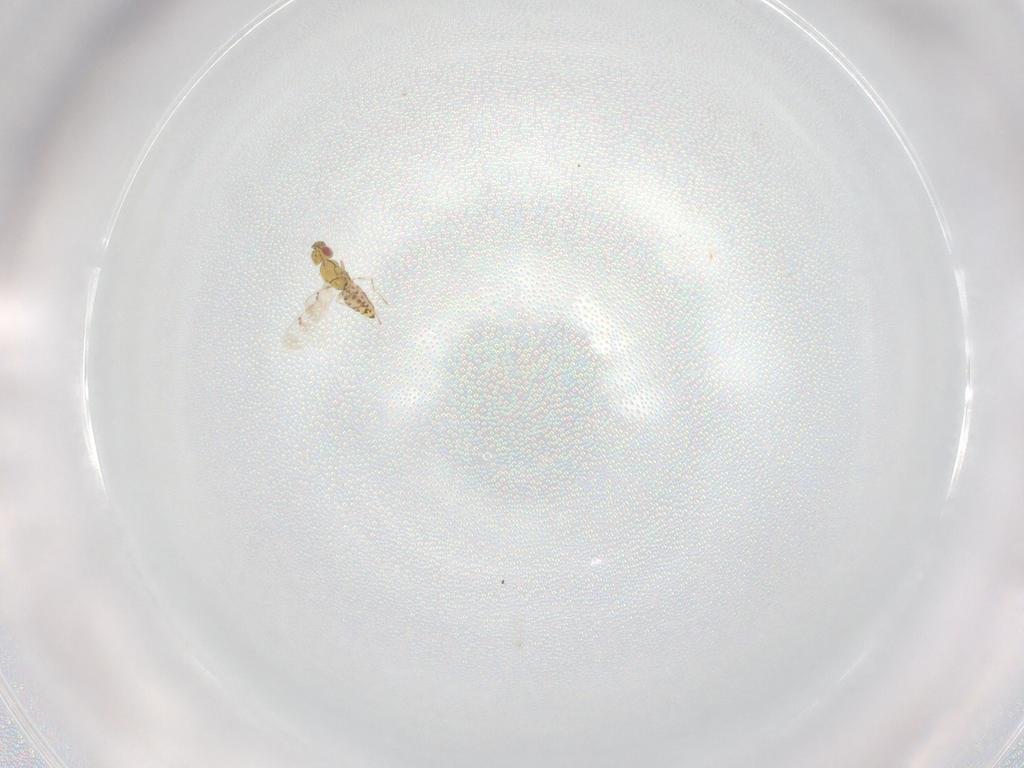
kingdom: Animalia
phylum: Arthropoda
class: Insecta
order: Hymenoptera
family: Eulophidae
